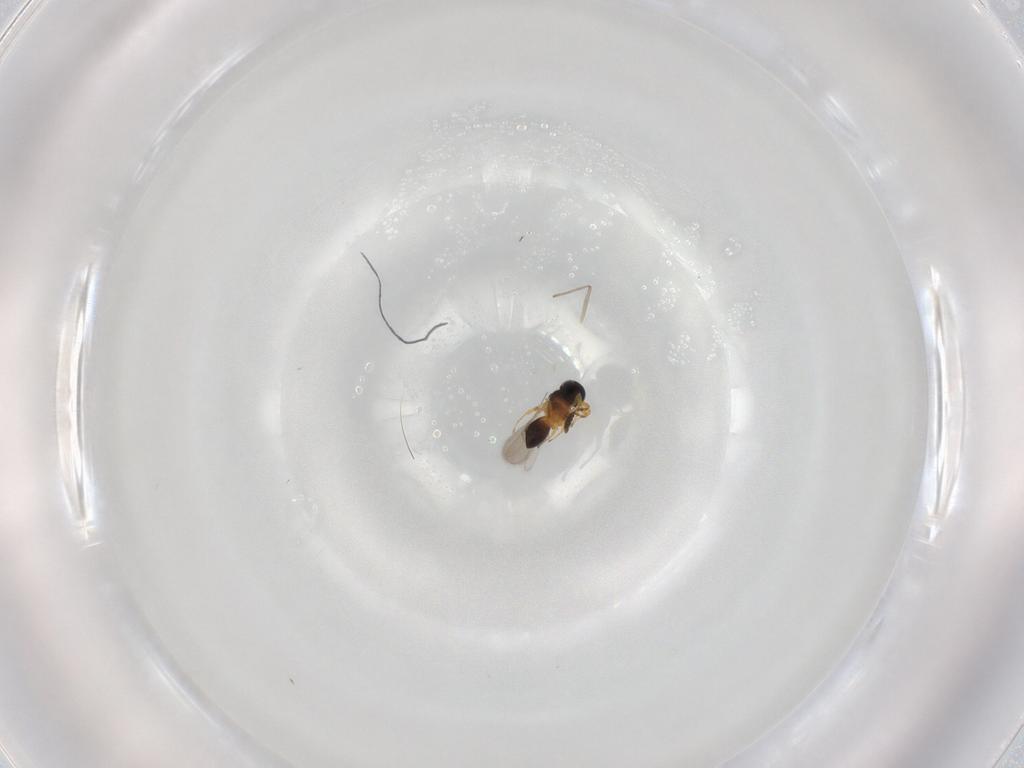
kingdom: Animalia
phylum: Arthropoda
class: Insecta
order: Hymenoptera
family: Scelionidae
